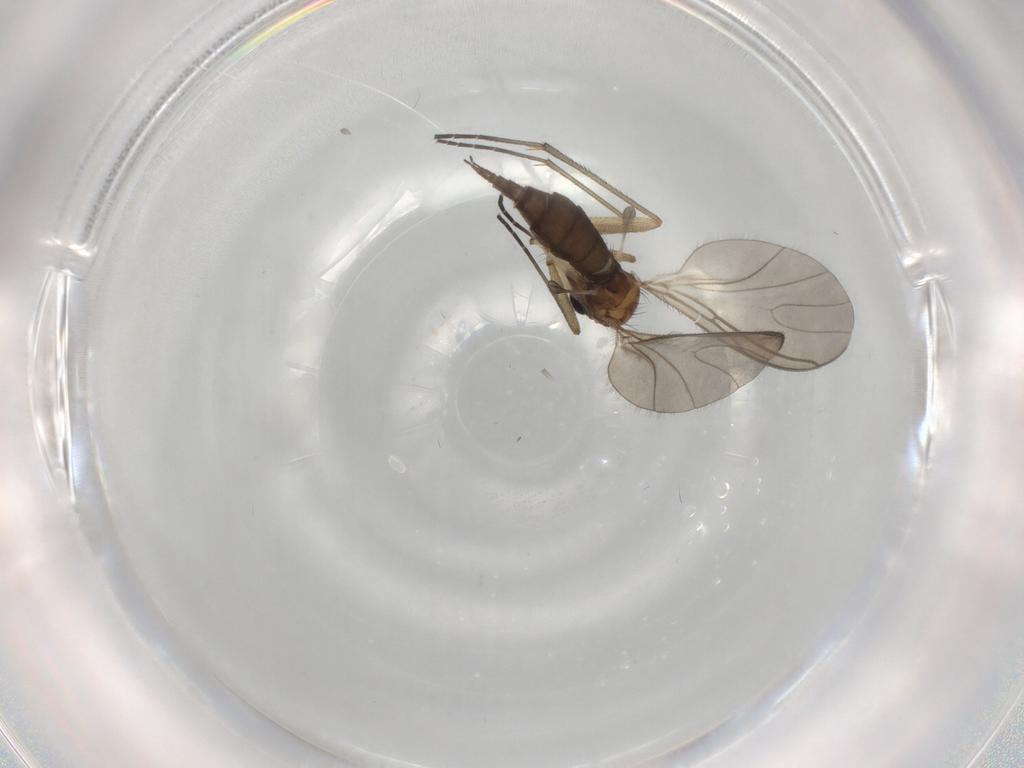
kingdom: Animalia
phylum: Arthropoda
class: Insecta
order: Diptera
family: Sciaridae
